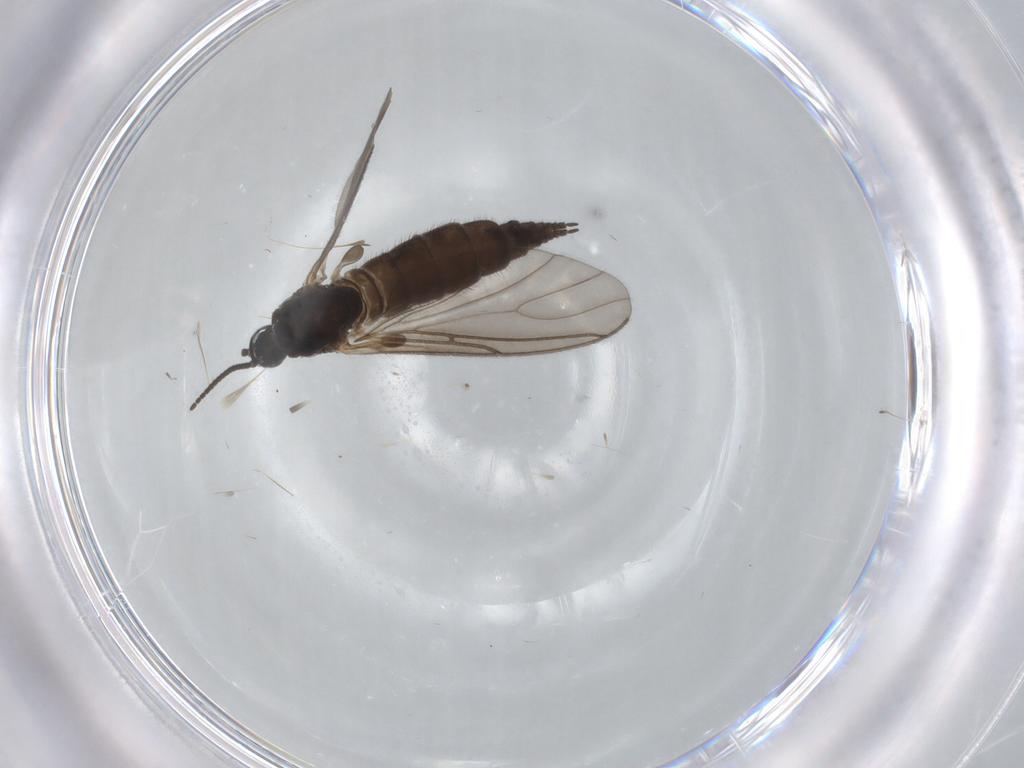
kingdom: Animalia
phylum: Arthropoda
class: Insecta
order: Diptera
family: Sciaridae
